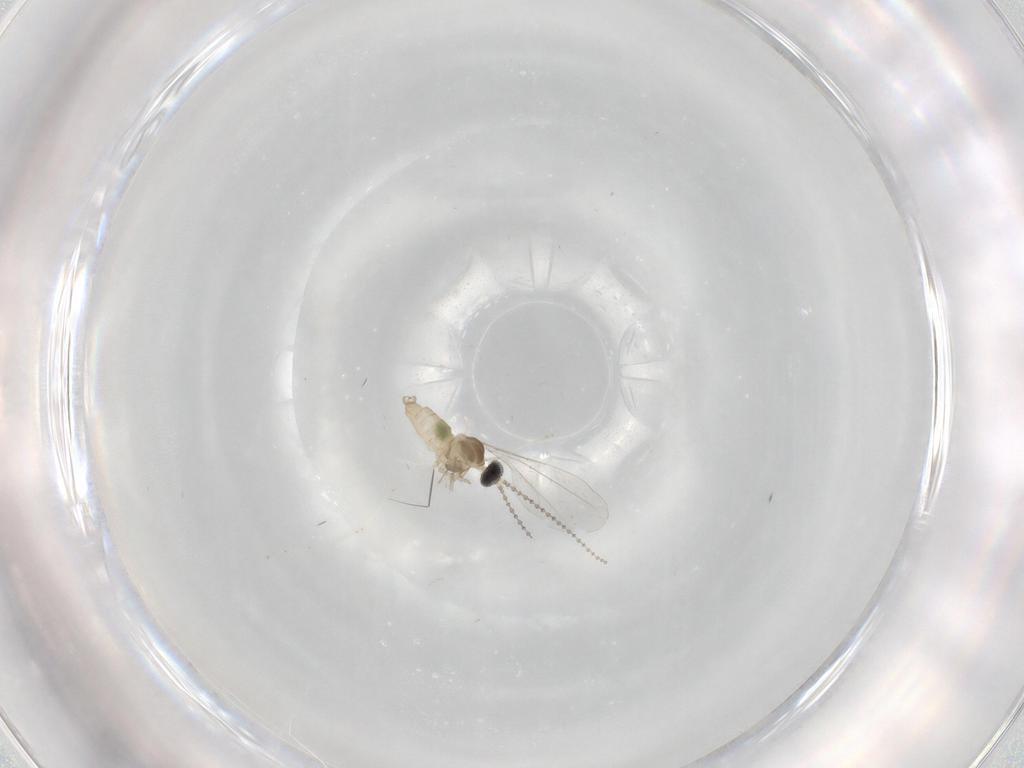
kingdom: Animalia
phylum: Arthropoda
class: Insecta
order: Diptera
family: Cecidomyiidae
